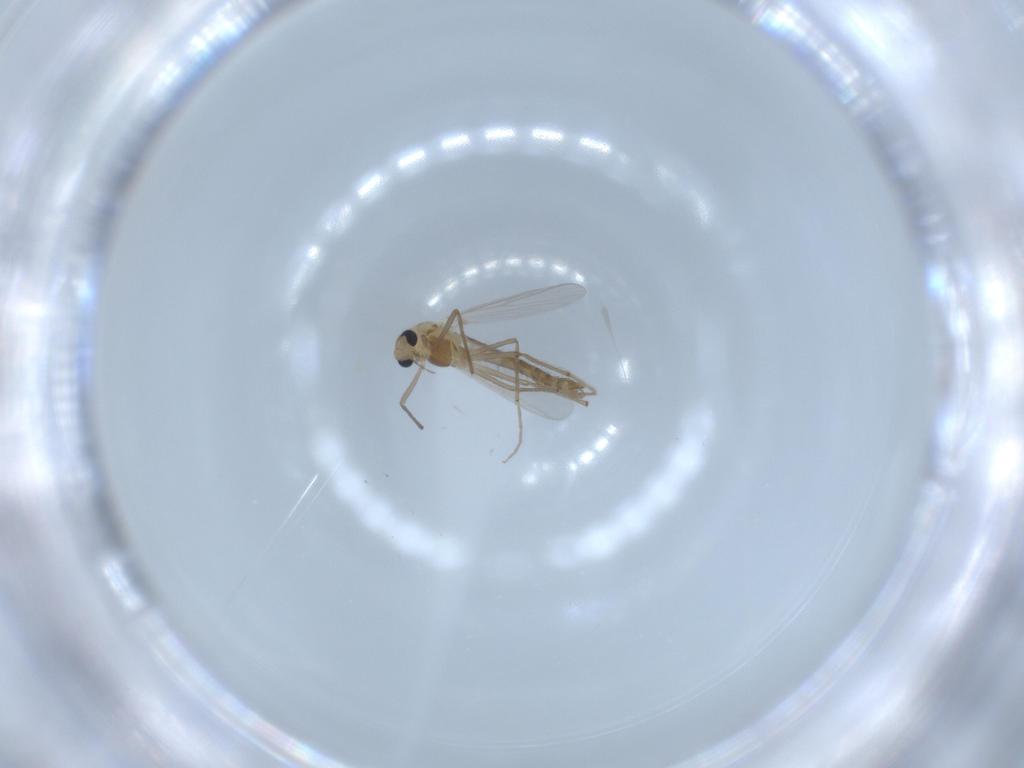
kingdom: Animalia
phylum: Arthropoda
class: Insecta
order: Diptera
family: Chironomidae
